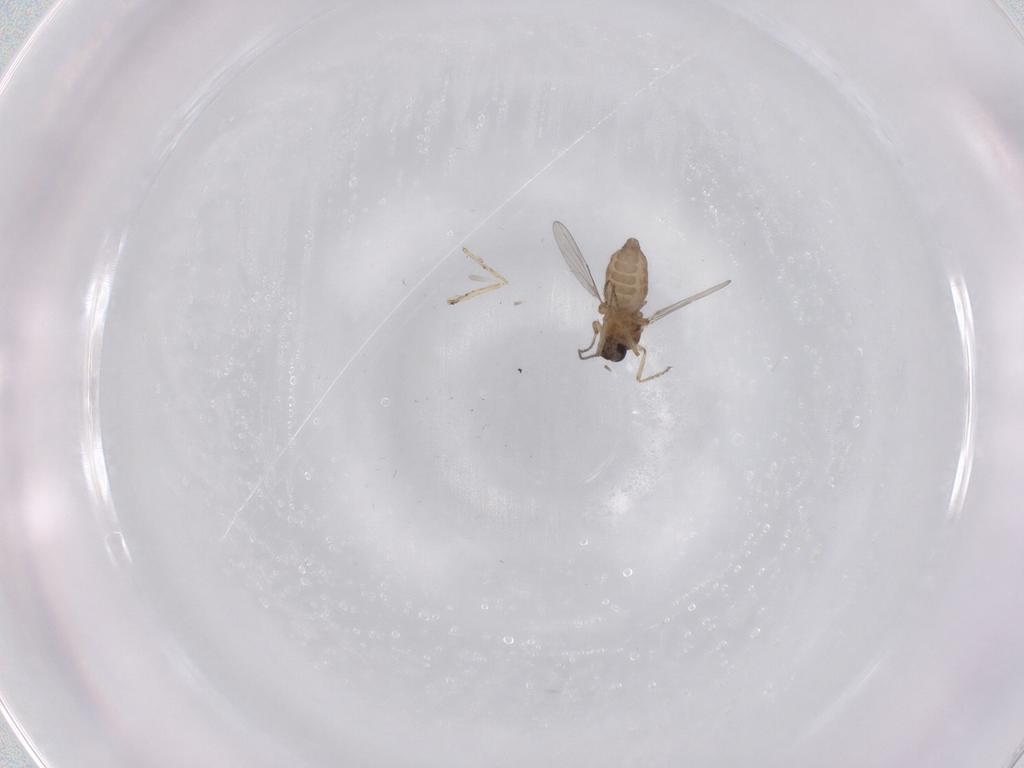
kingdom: Animalia
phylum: Arthropoda
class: Insecta
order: Diptera
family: Chironomidae
